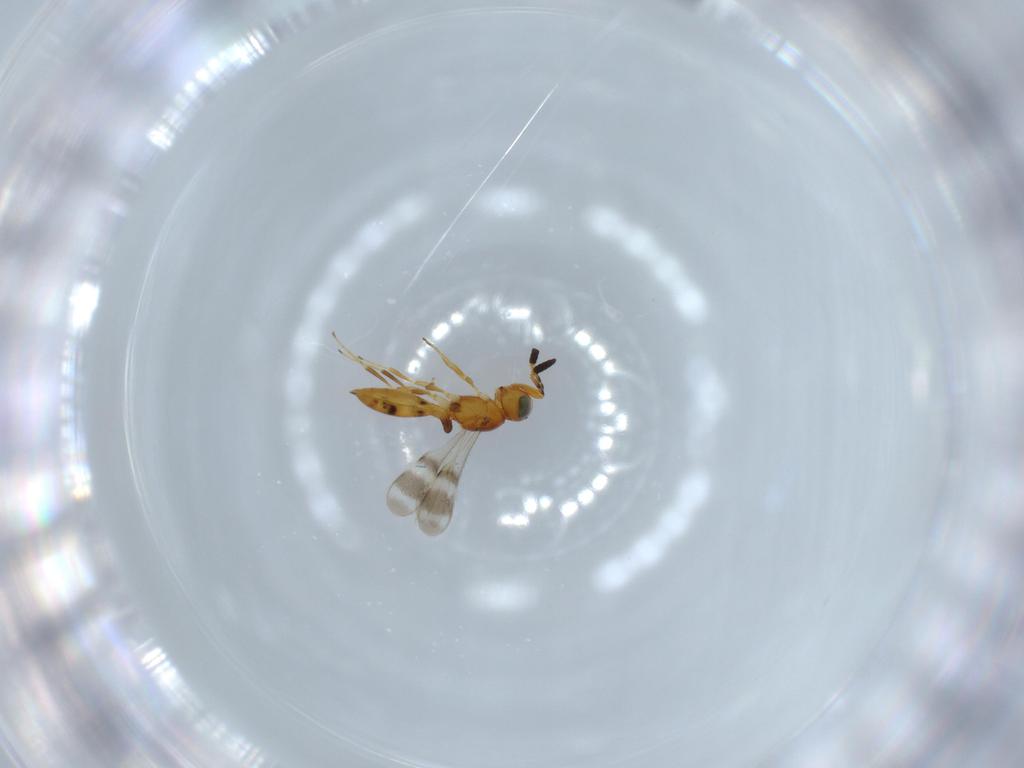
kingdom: Animalia
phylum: Arthropoda
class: Insecta
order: Hymenoptera
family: Scelionidae
